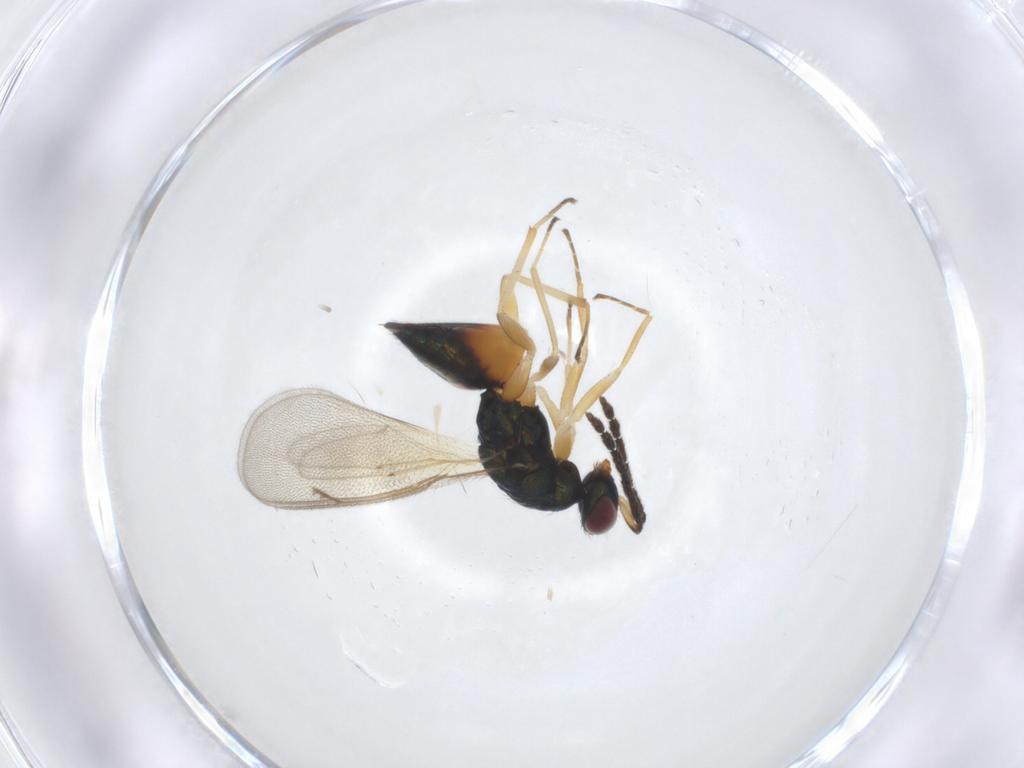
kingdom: Animalia
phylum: Arthropoda
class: Insecta
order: Hymenoptera
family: Eulophidae
